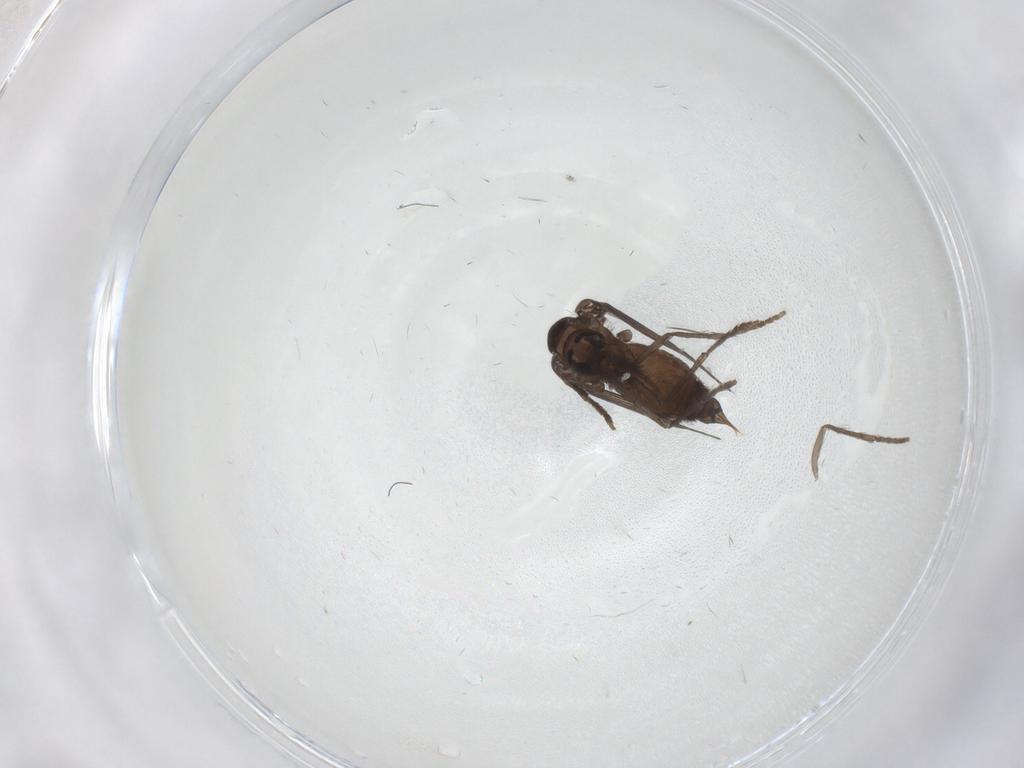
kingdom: Animalia
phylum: Arthropoda
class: Insecta
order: Diptera
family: Psychodidae
